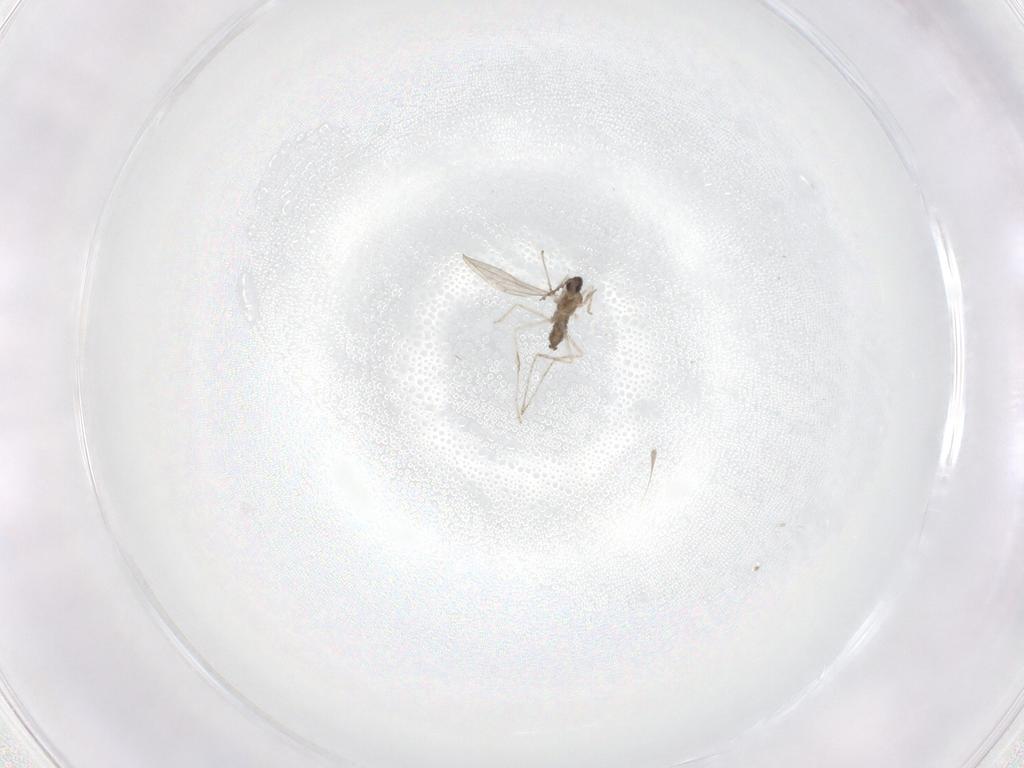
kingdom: Animalia
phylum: Arthropoda
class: Insecta
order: Diptera
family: Cecidomyiidae
